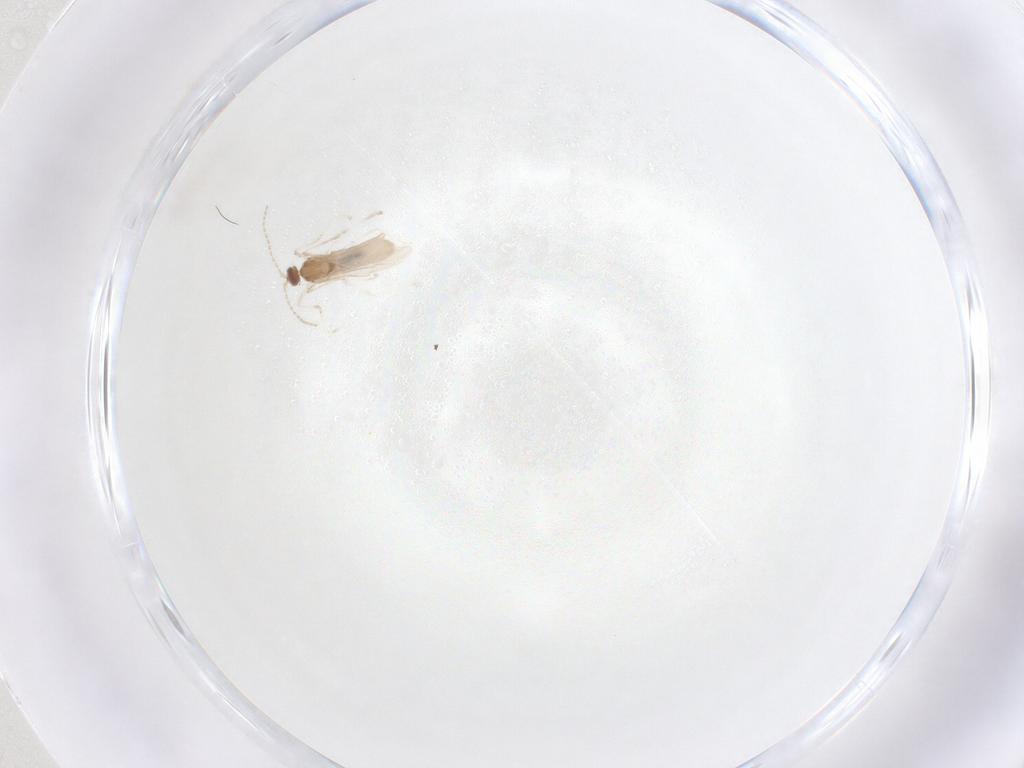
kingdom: Animalia
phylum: Arthropoda
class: Insecta
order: Diptera
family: Cecidomyiidae
